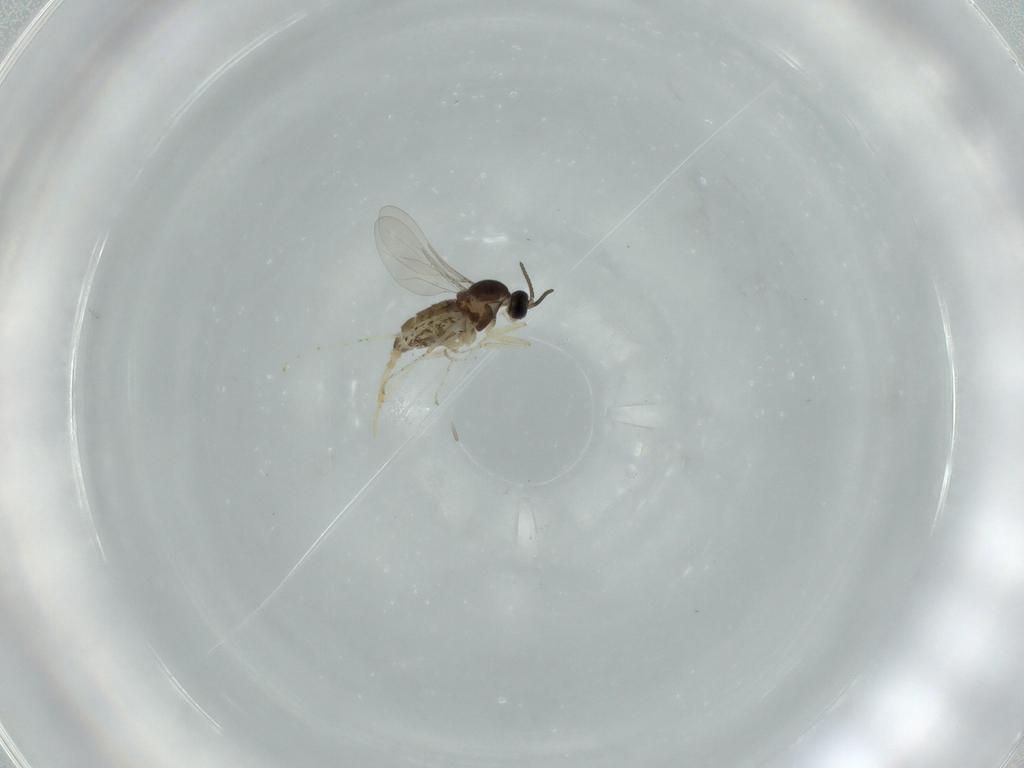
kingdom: Animalia
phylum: Arthropoda
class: Insecta
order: Diptera
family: Cecidomyiidae
